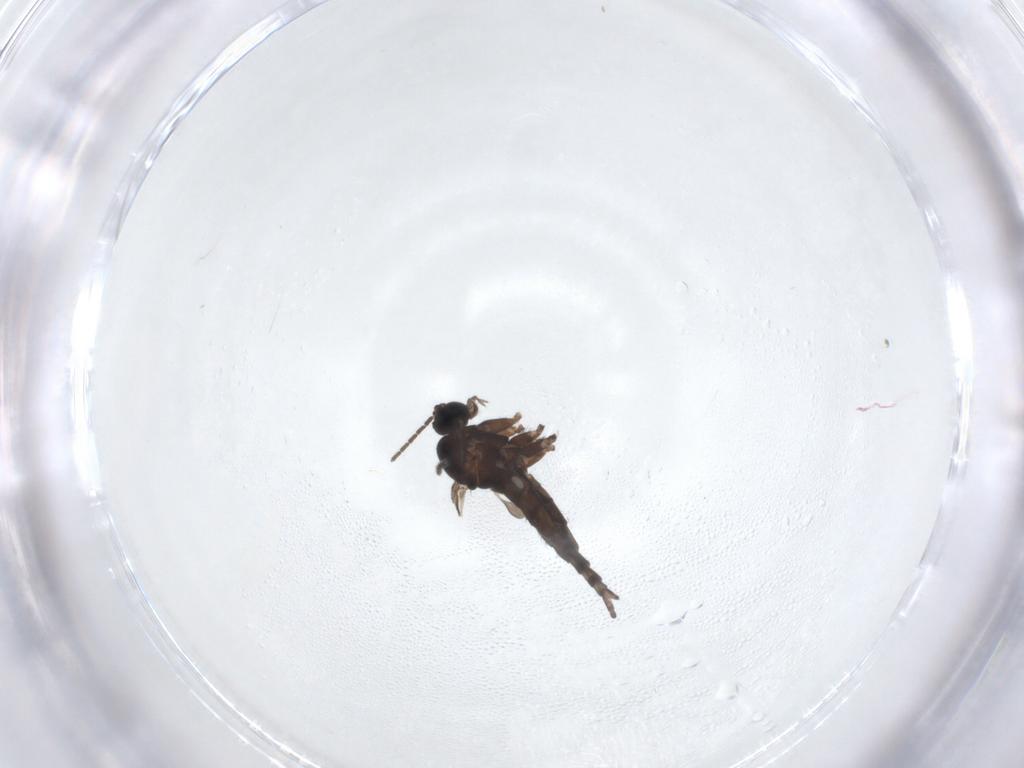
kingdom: Animalia
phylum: Arthropoda
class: Insecta
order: Diptera
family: Sciaridae
